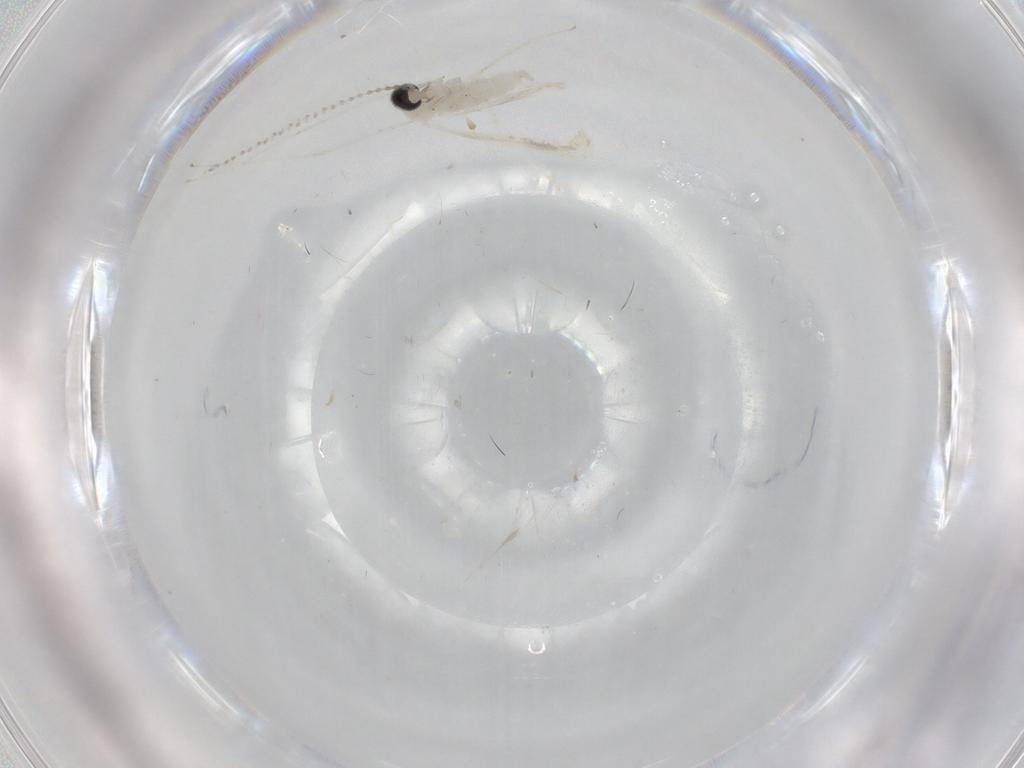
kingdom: Animalia
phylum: Arthropoda
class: Insecta
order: Diptera
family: Cecidomyiidae
